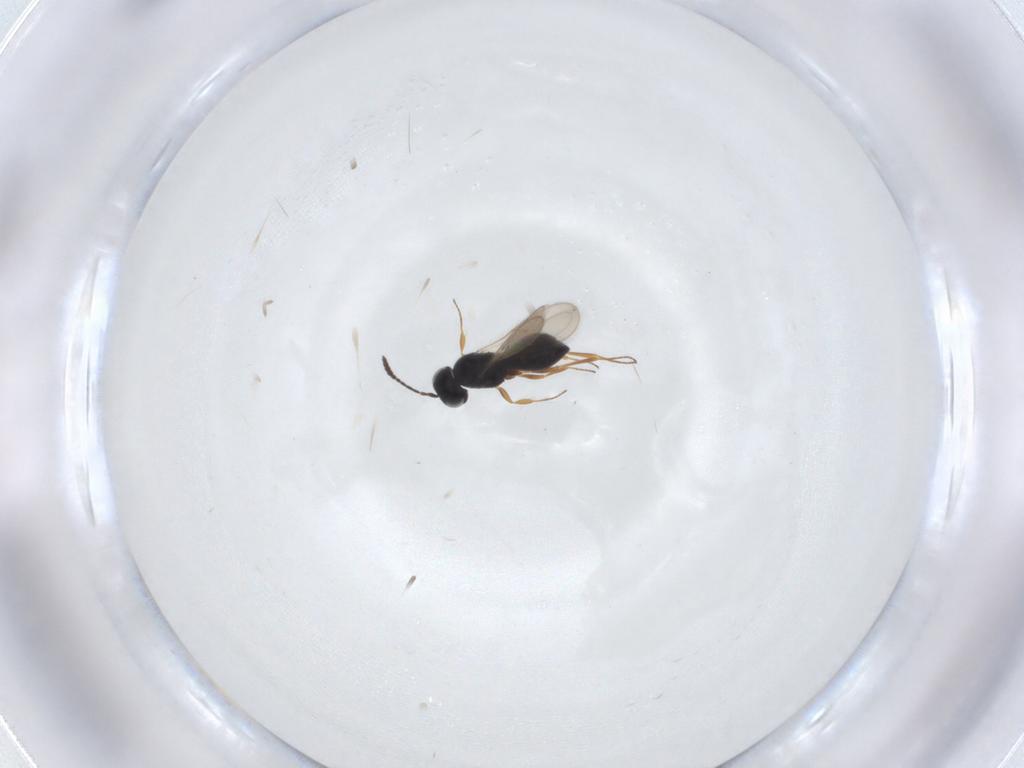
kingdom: Animalia
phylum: Arthropoda
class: Insecta
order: Hymenoptera
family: Scelionidae
